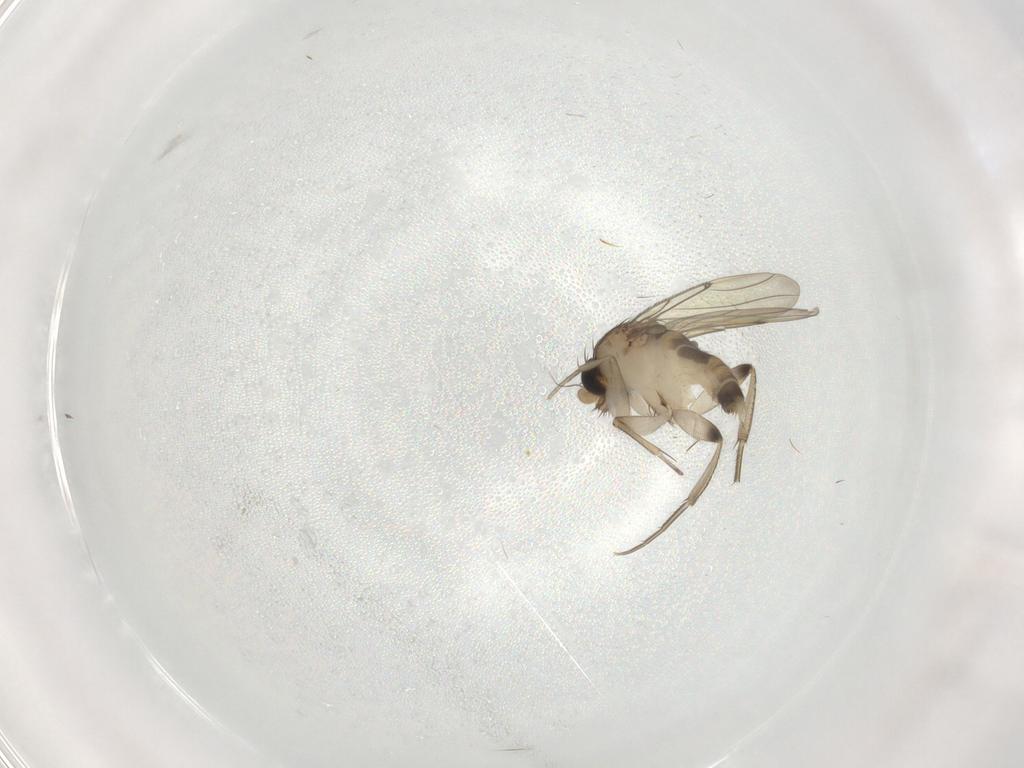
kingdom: Animalia
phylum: Arthropoda
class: Insecta
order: Diptera
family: Phoridae
